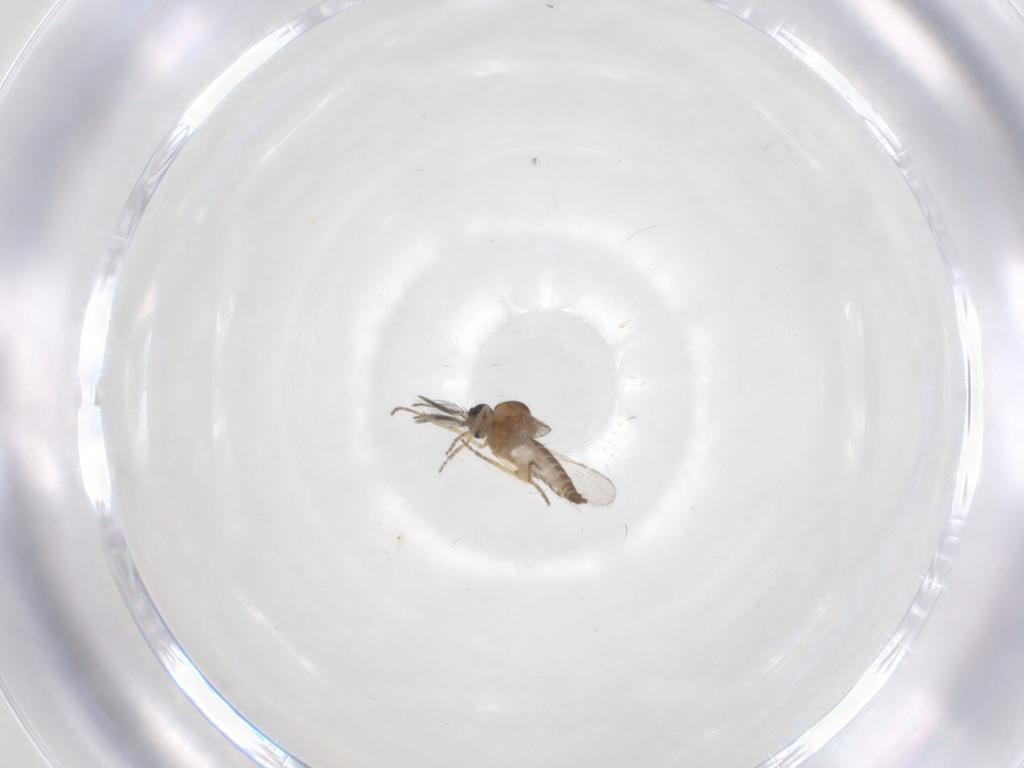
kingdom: Animalia
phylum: Arthropoda
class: Insecta
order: Diptera
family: Ceratopogonidae
